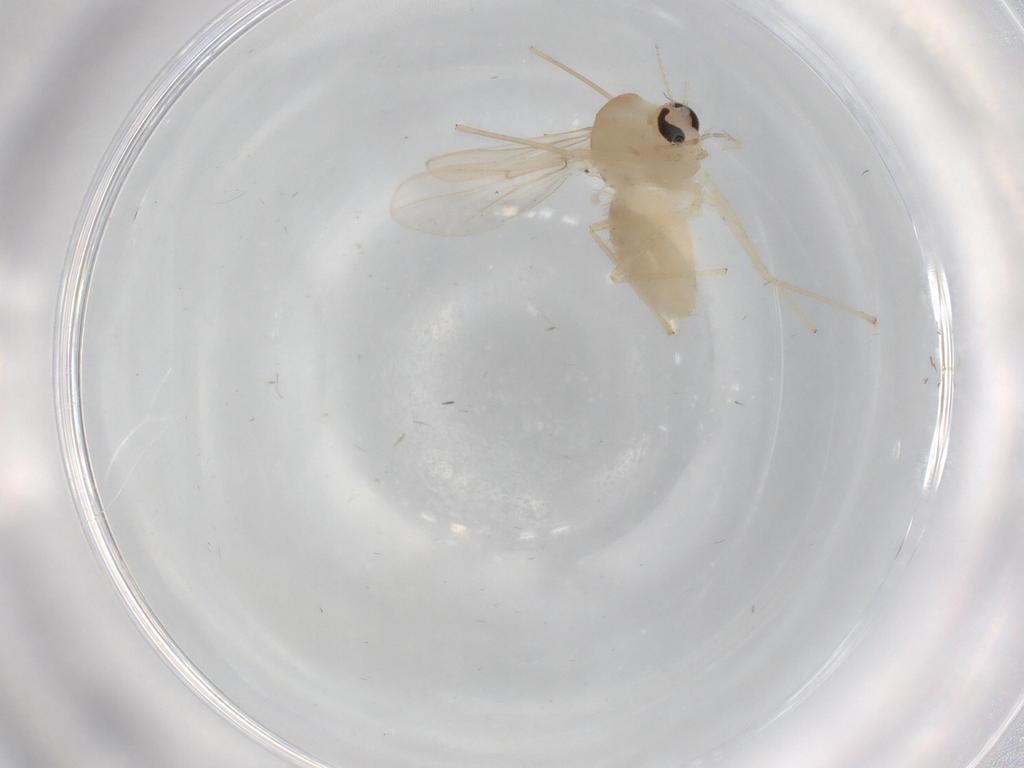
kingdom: Animalia
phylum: Arthropoda
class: Insecta
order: Diptera
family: Chironomidae
